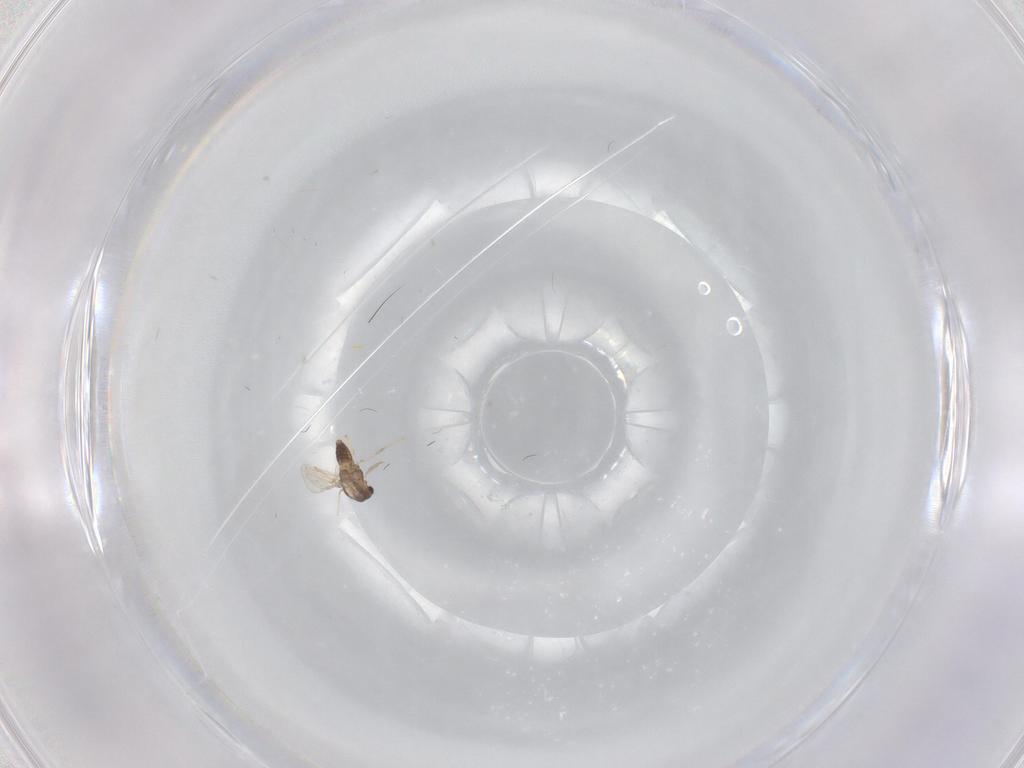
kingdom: Animalia
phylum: Arthropoda
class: Insecta
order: Diptera
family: Chironomidae
